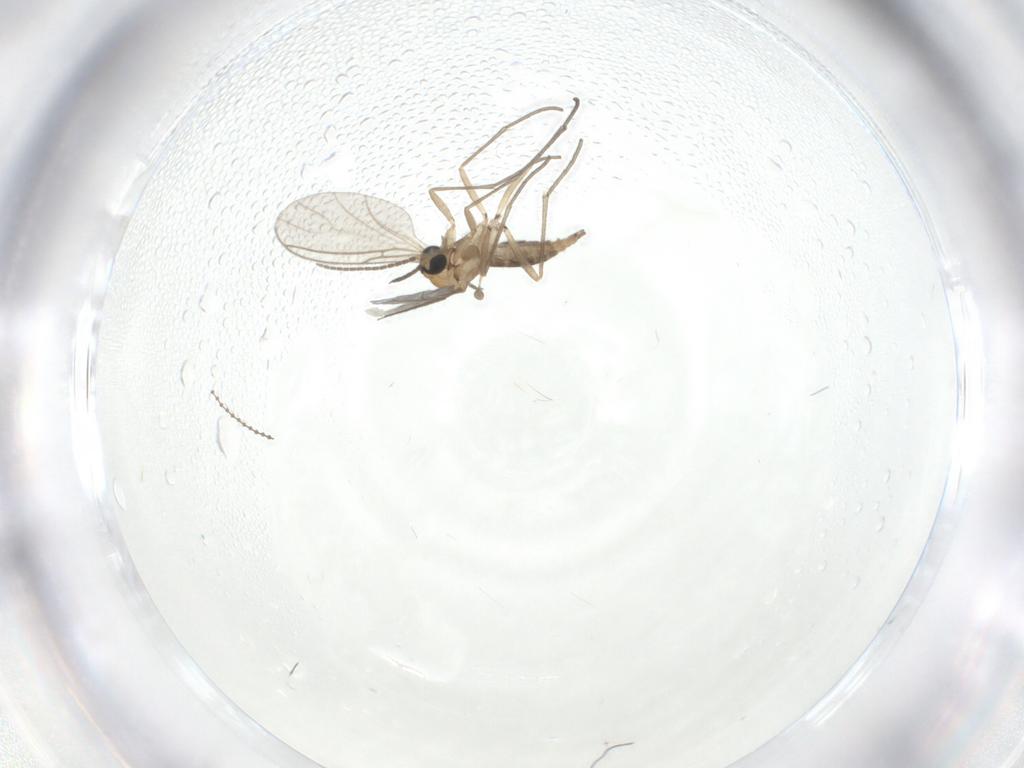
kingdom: Animalia
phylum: Arthropoda
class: Insecta
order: Diptera
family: Sciaridae
